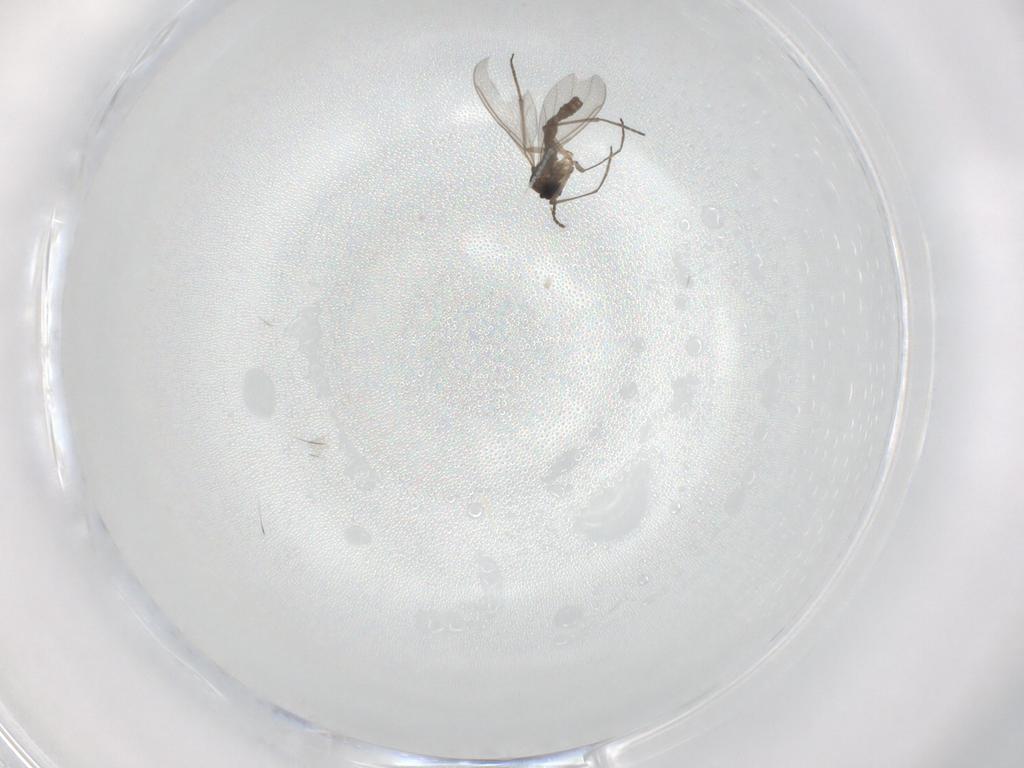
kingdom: Animalia
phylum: Arthropoda
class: Insecta
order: Diptera
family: Sciaridae
